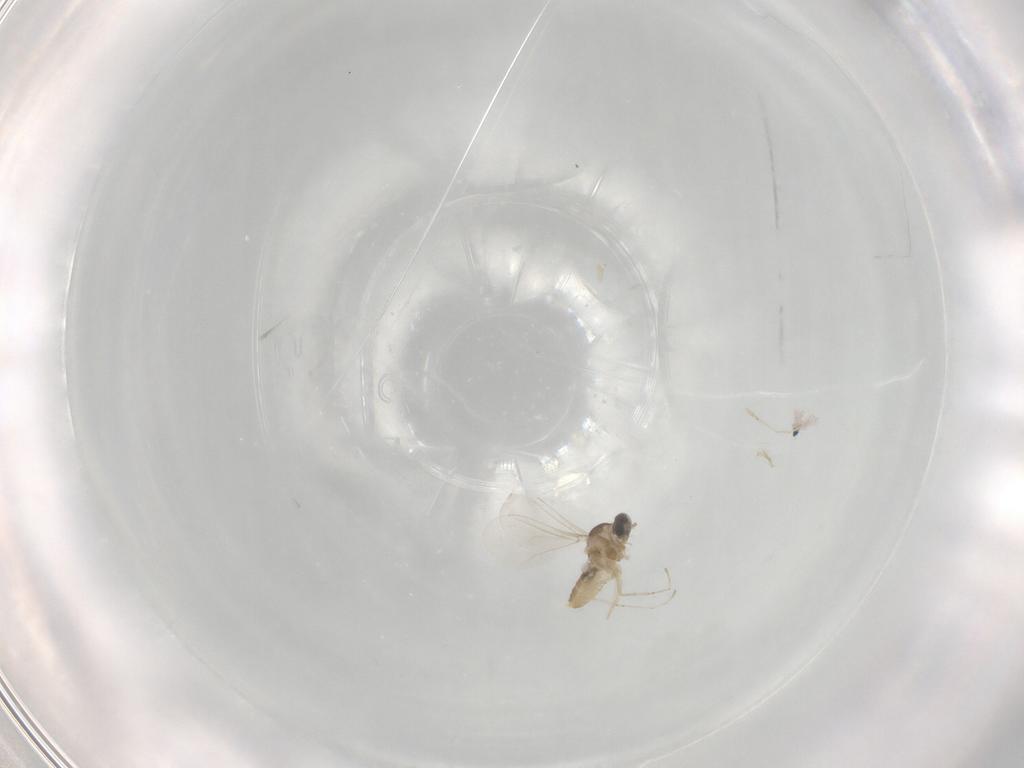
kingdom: Animalia
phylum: Arthropoda
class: Insecta
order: Diptera
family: Cecidomyiidae
